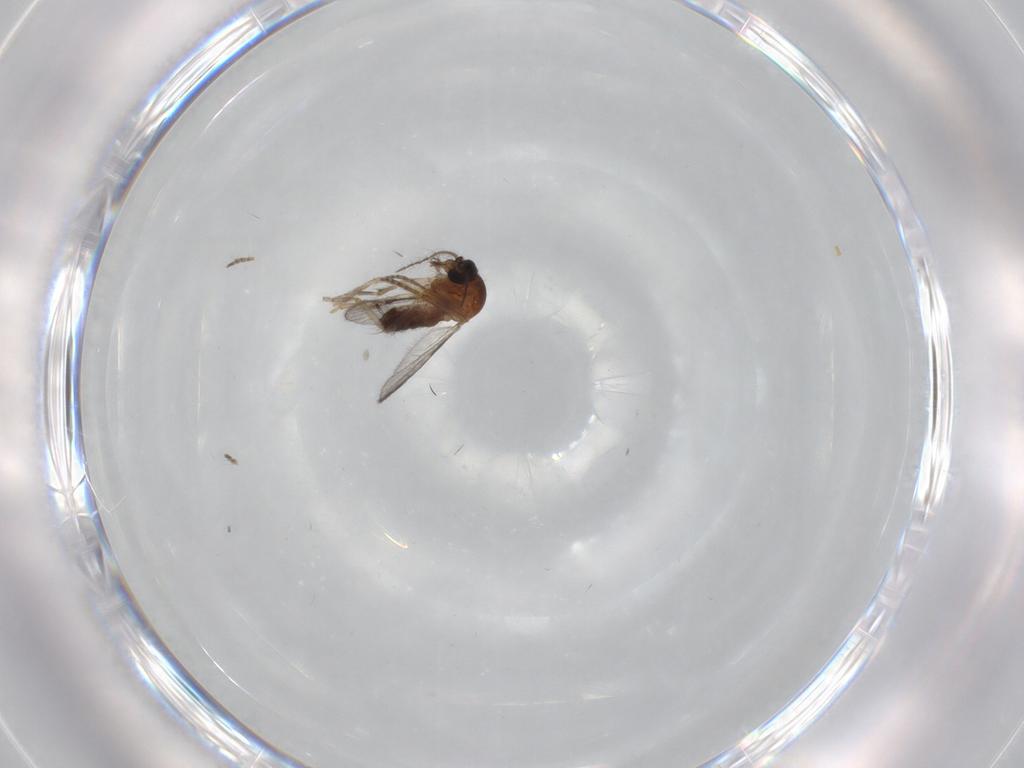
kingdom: Animalia
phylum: Arthropoda
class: Insecta
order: Diptera
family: Ceratopogonidae
